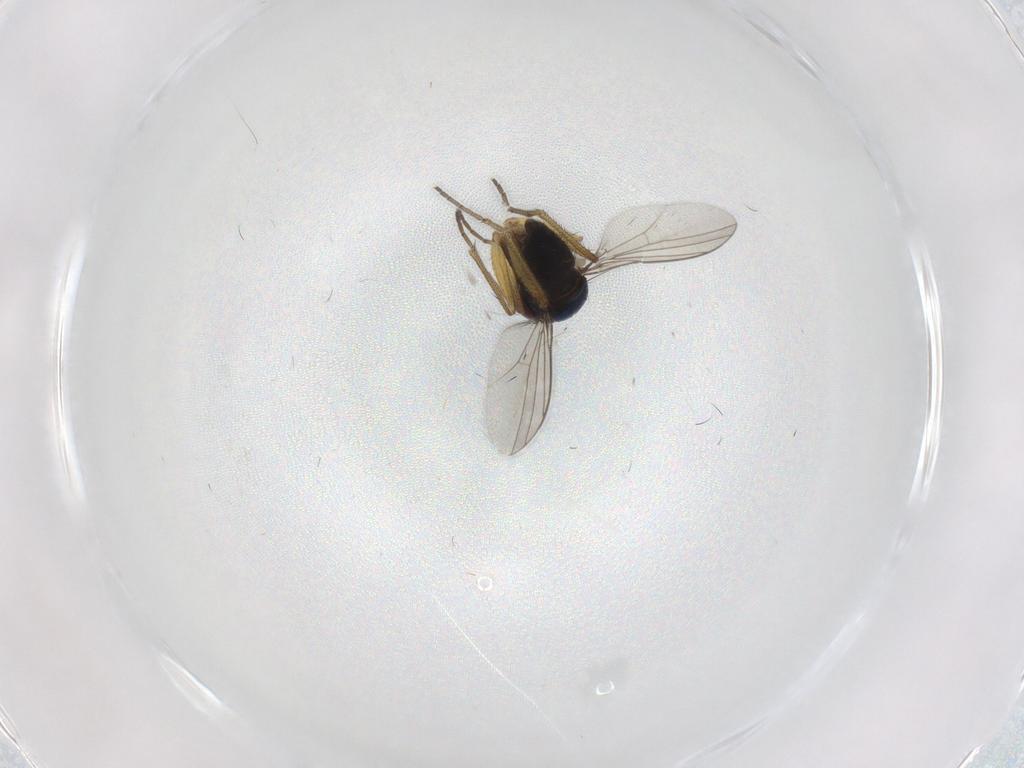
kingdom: Animalia
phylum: Arthropoda
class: Insecta
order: Diptera
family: Dolichopodidae
